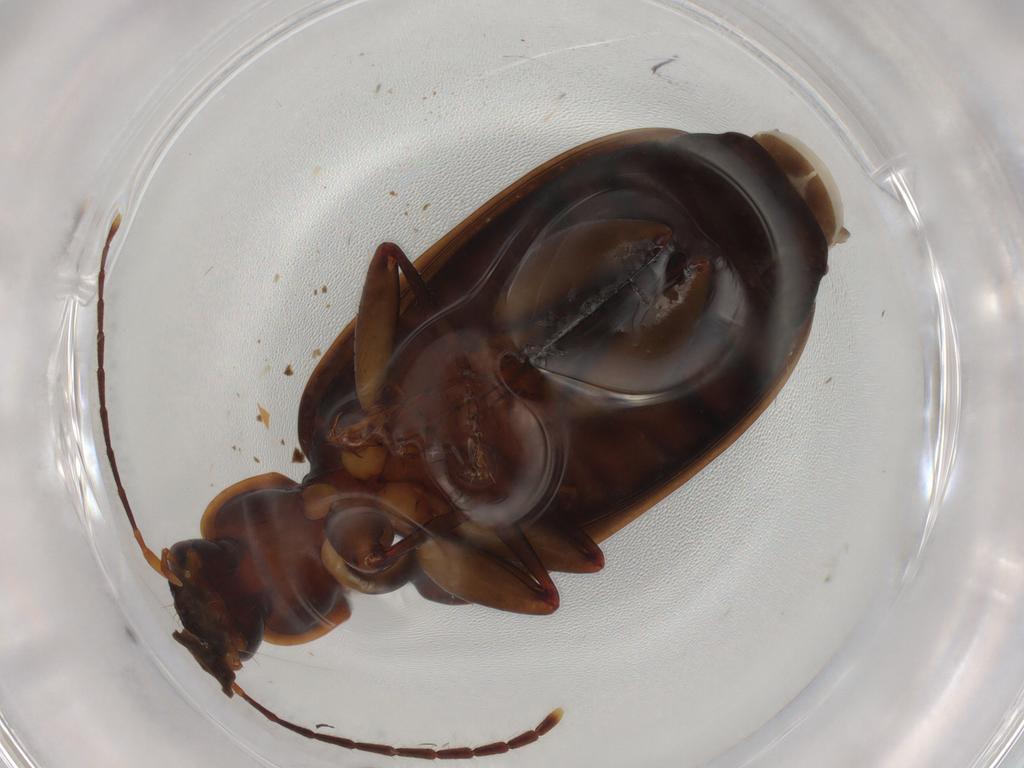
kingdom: Animalia
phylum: Arthropoda
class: Insecta
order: Coleoptera
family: Carabidae
